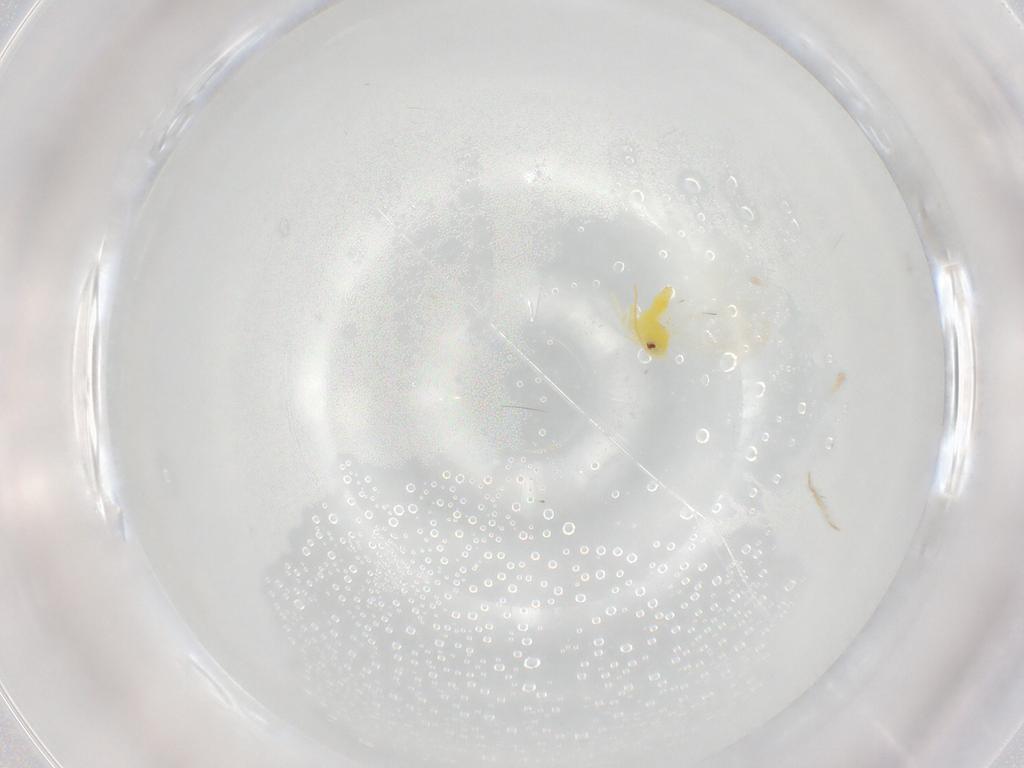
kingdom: Animalia
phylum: Arthropoda
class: Insecta
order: Hemiptera
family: Aleyrodidae
